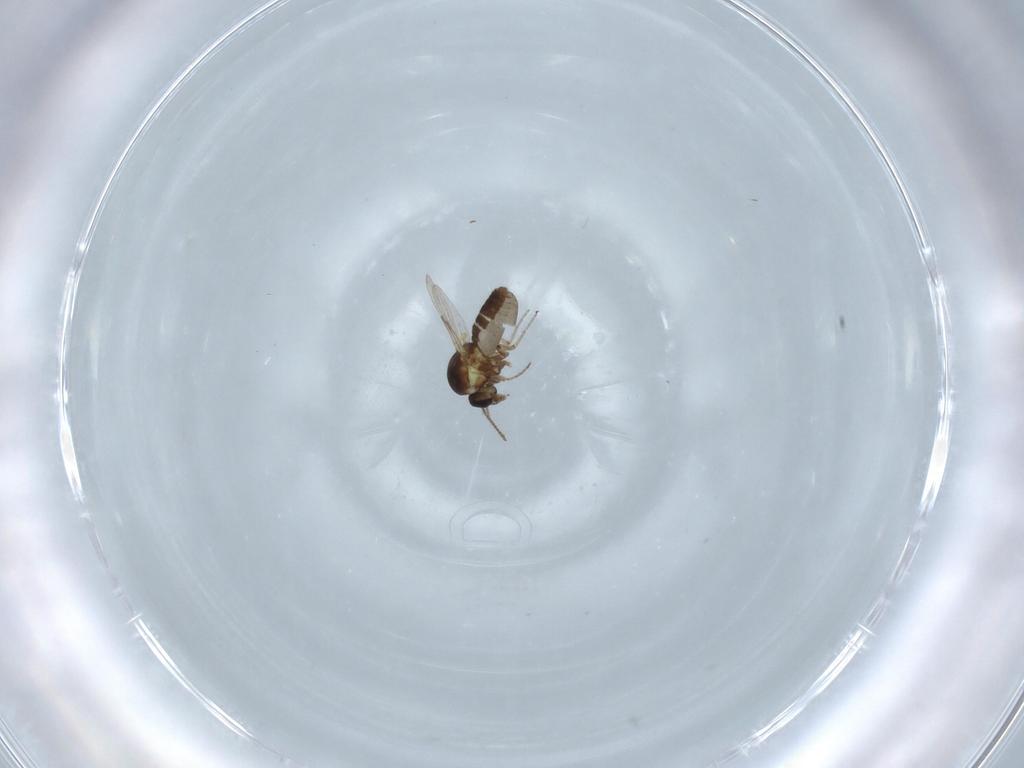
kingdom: Animalia
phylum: Arthropoda
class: Insecta
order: Diptera
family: Ceratopogonidae
